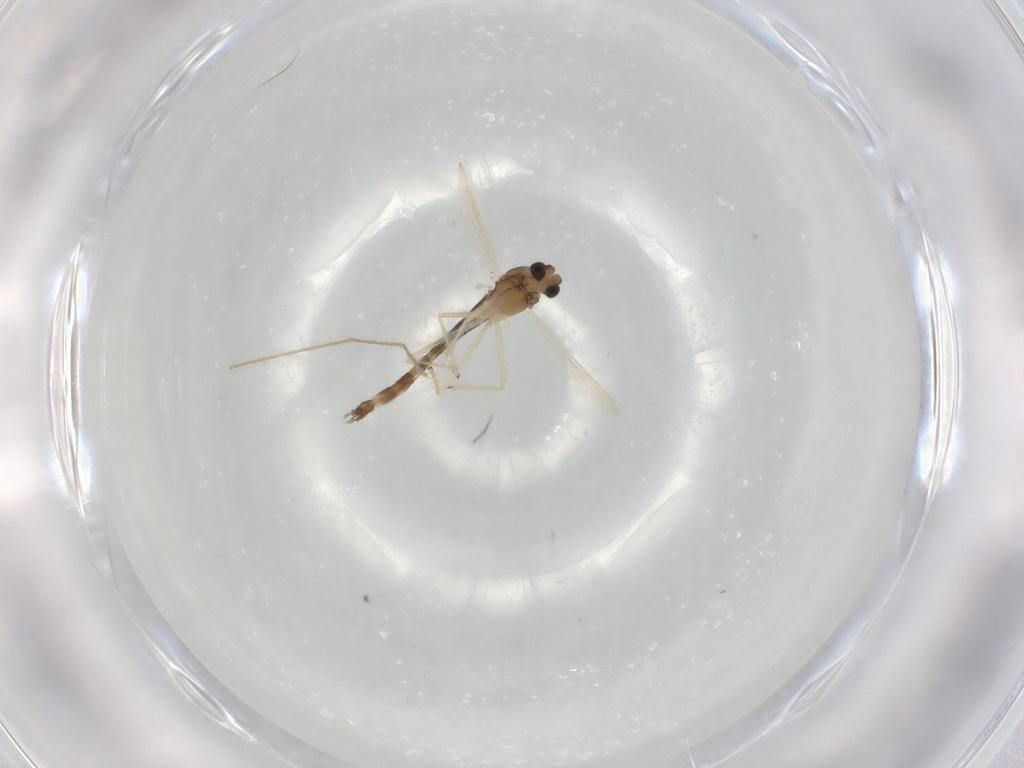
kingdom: Animalia
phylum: Arthropoda
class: Insecta
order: Diptera
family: Chironomidae
